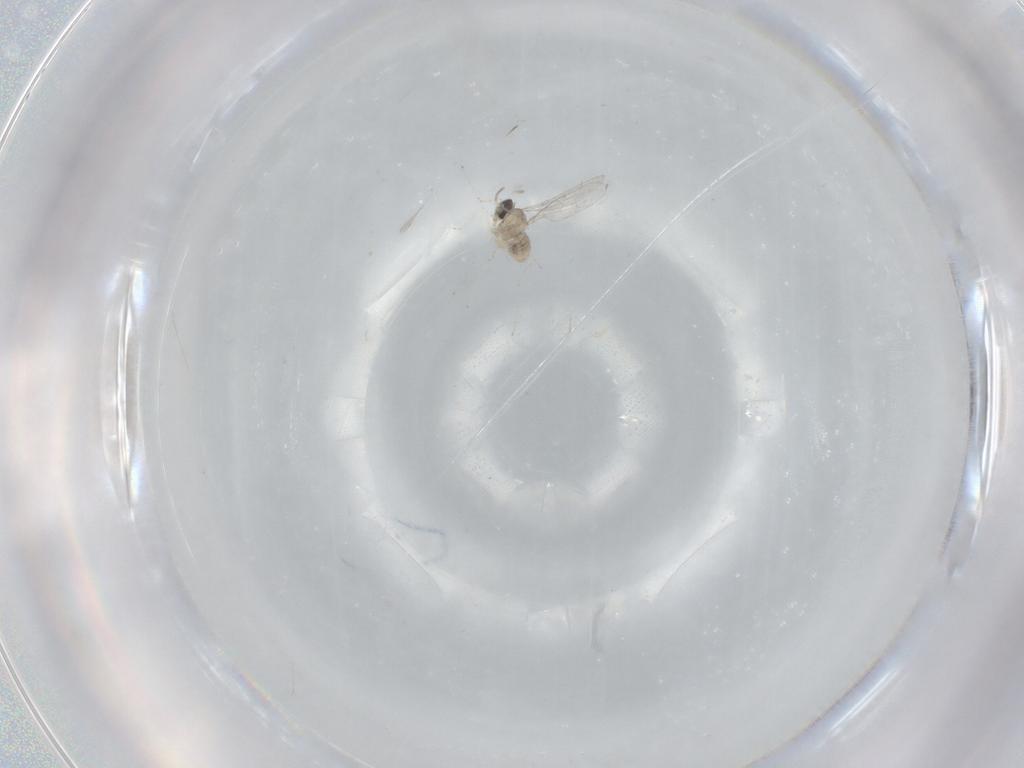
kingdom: Animalia
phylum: Arthropoda
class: Insecta
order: Diptera
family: Cecidomyiidae
